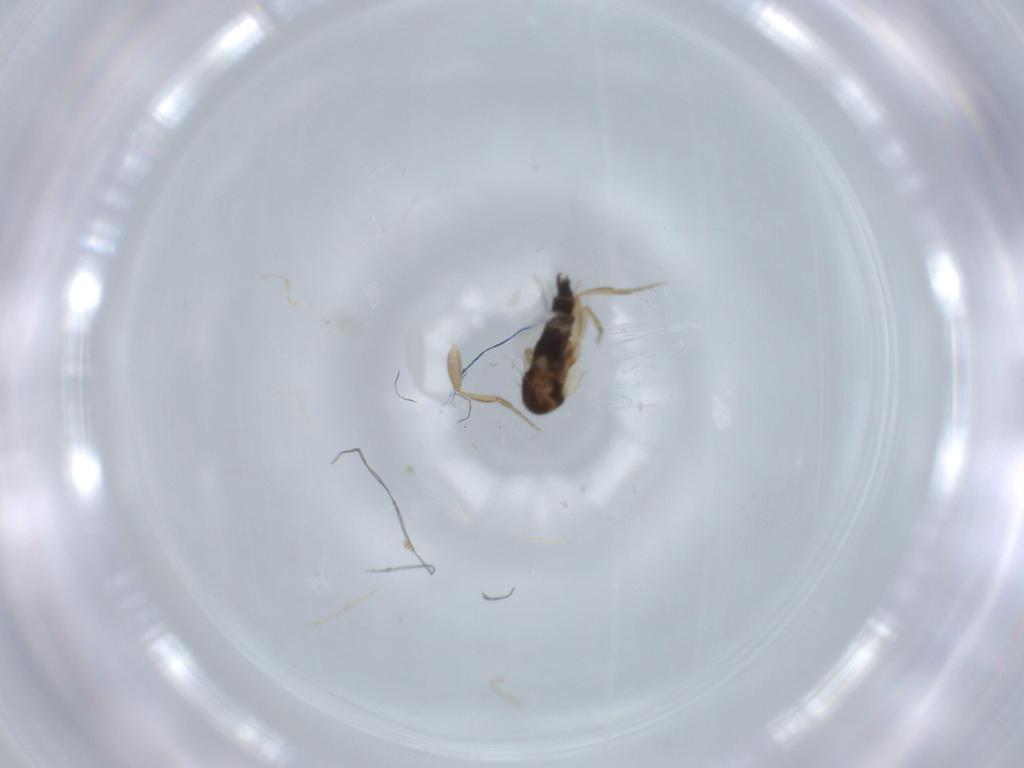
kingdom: Animalia
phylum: Arthropoda
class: Insecta
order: Diptera
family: Phoridae
